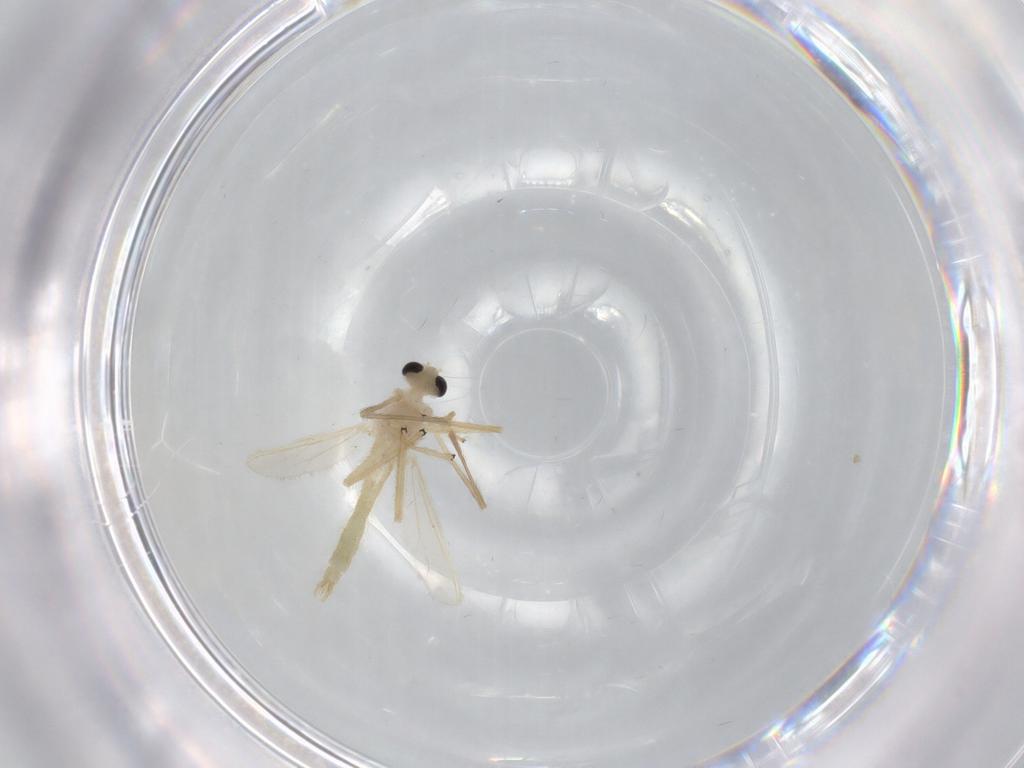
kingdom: Animalia
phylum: Arthropoda
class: Insecta
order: Diptera
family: Chironomidae
